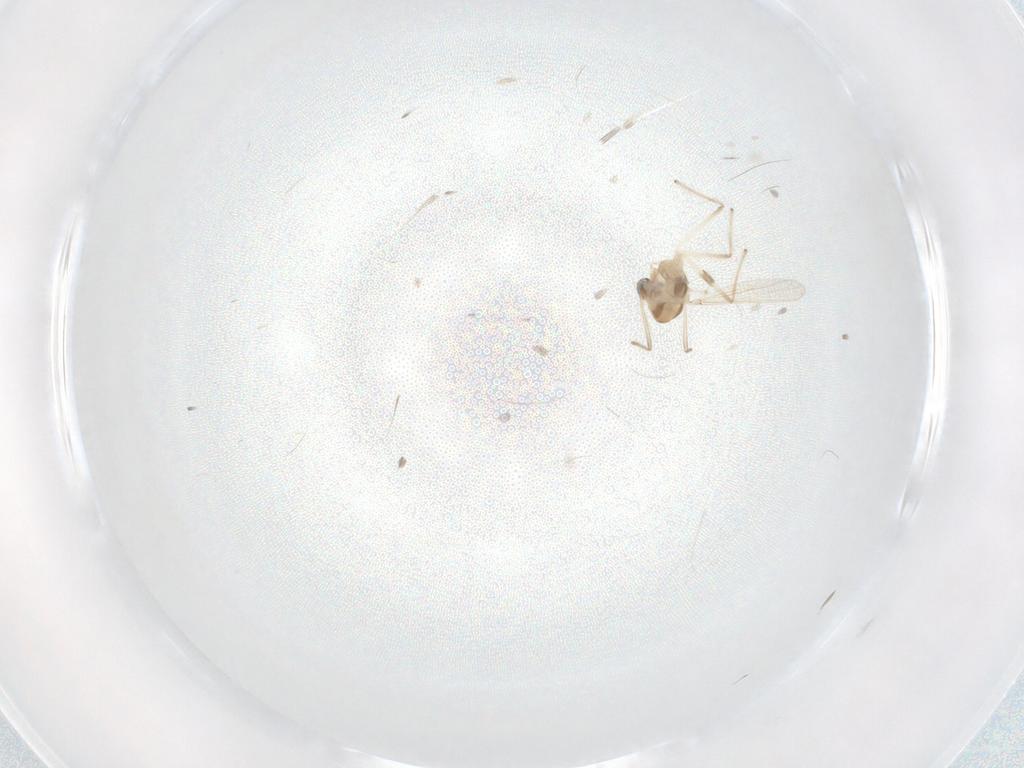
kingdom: Animalia
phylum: Arthropoda
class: Insecta
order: Diptera
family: Chironomidae
